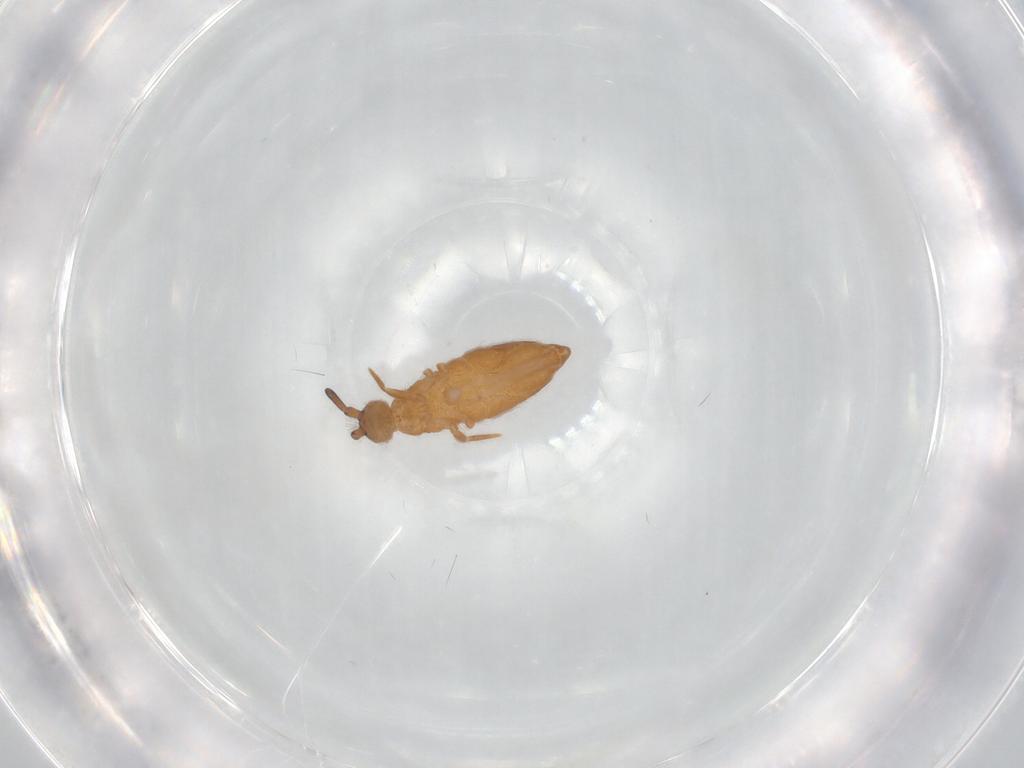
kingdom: Animalia
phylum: Arthropoda
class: Collembola
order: Entomobryomorpha
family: Entomobryidae
